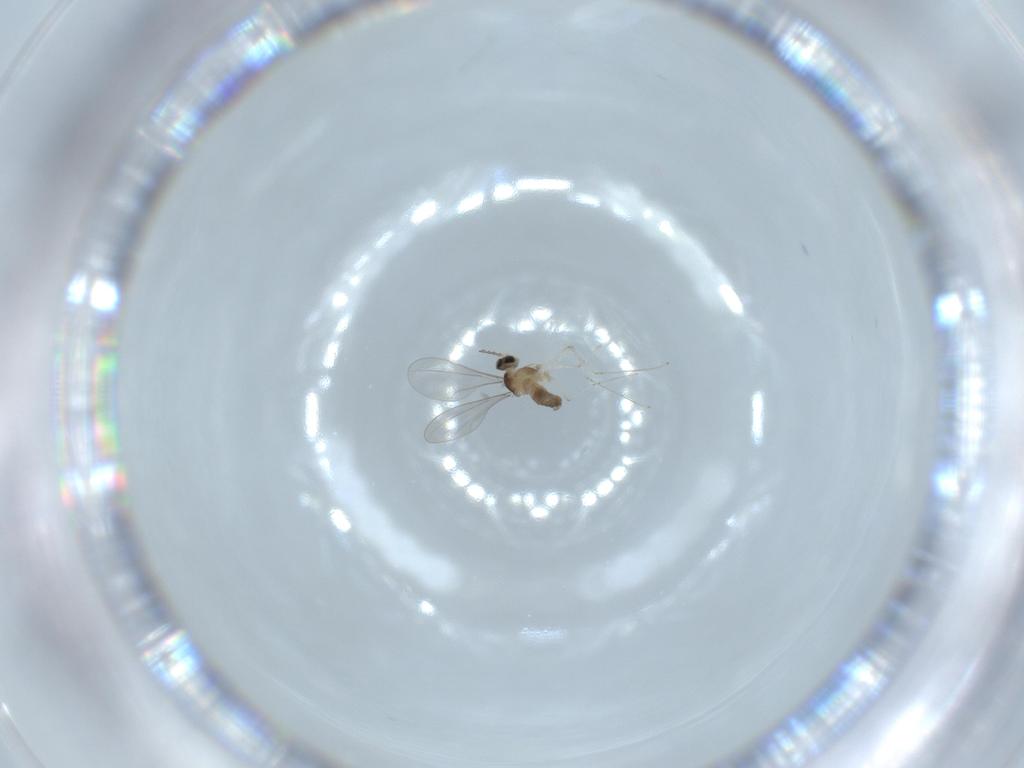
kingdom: Animalia
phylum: Arthropoda
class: Insecta
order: Diptera
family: Cecidomyiidae
